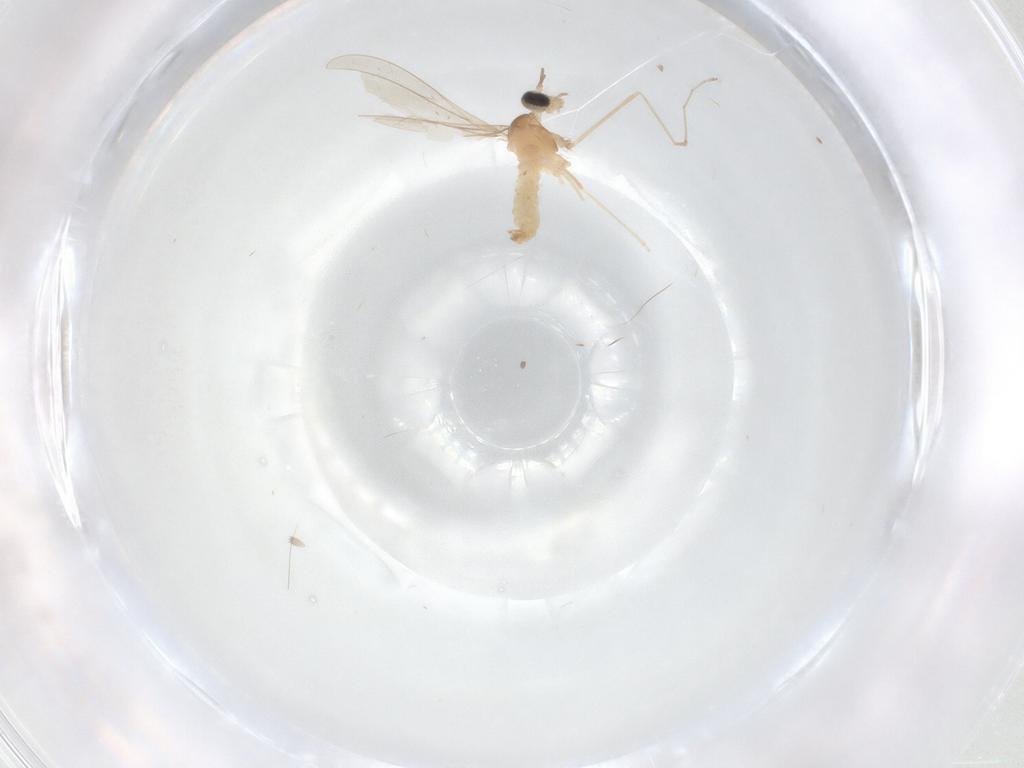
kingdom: Animalia
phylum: Arthropoda
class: Insecta
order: Diptera
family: Cecidomyiidae
